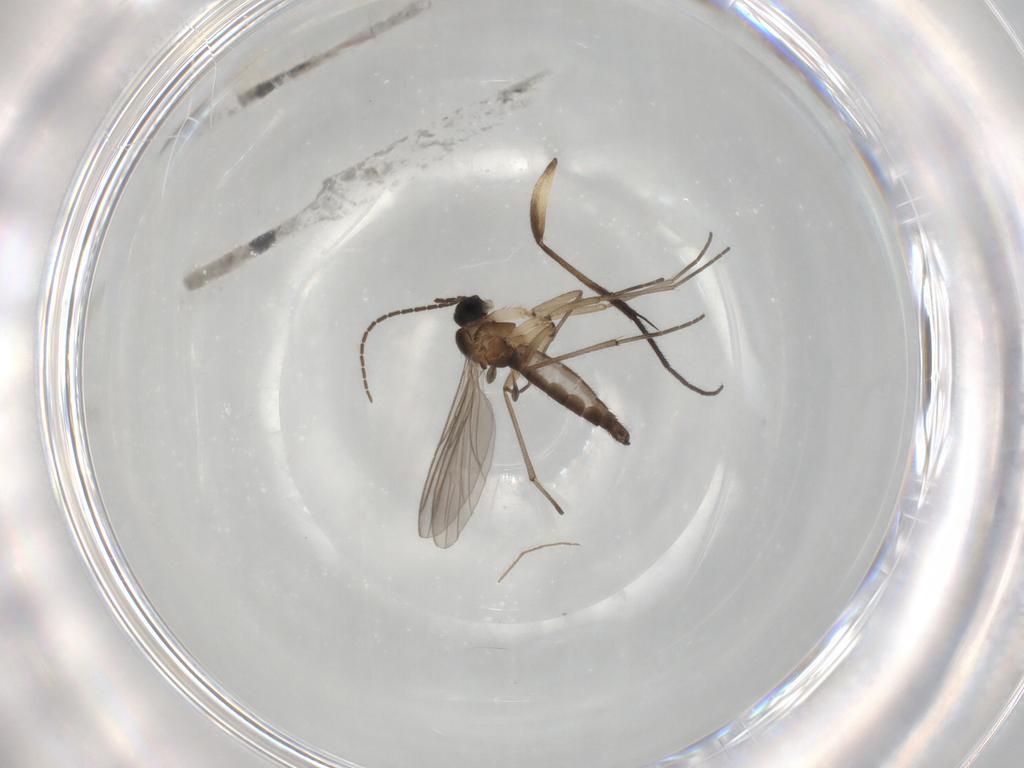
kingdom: Animalia
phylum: Arthropoda
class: Insecta
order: Diptera
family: Sciaridae
